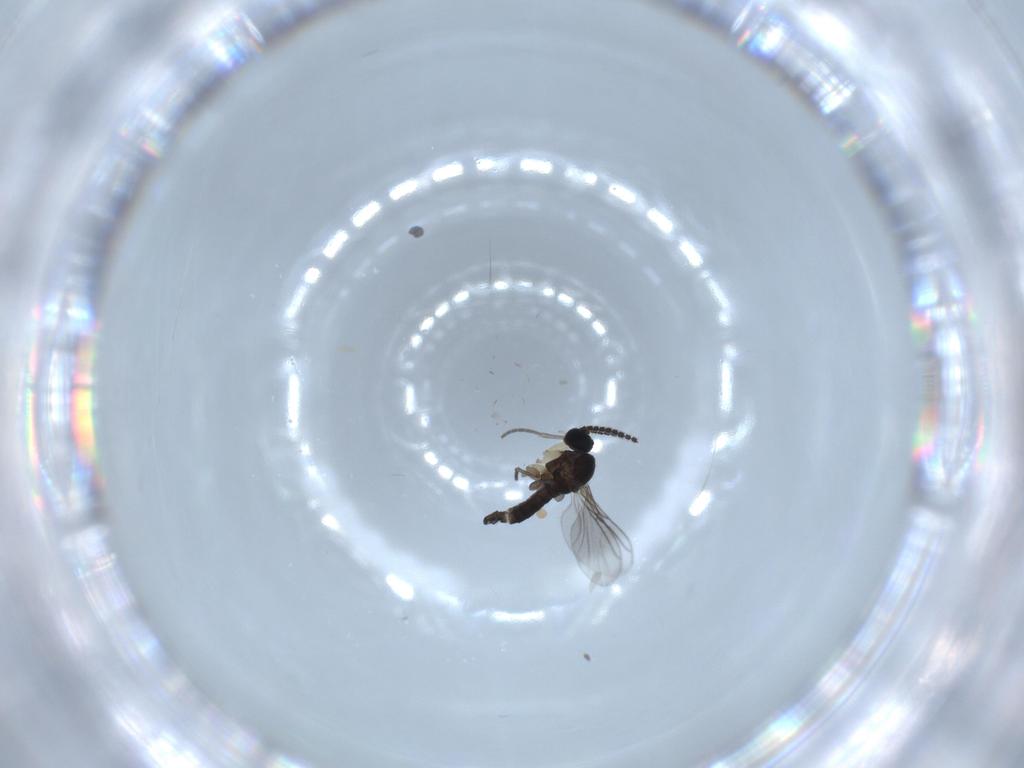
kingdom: Animalia
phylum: Arthropoda
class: Insecta
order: Diptera
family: Sciaridae
